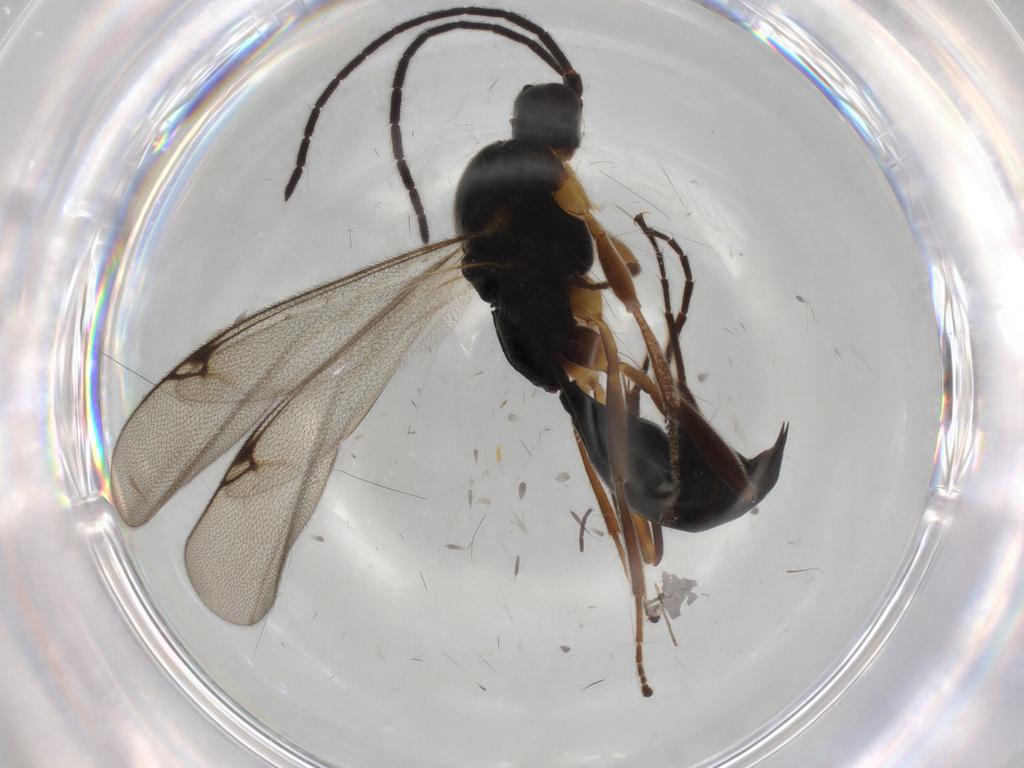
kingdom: Animalia
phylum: Arthropoda
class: Insecta
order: Hymenoptera
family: Proctotrupidae
